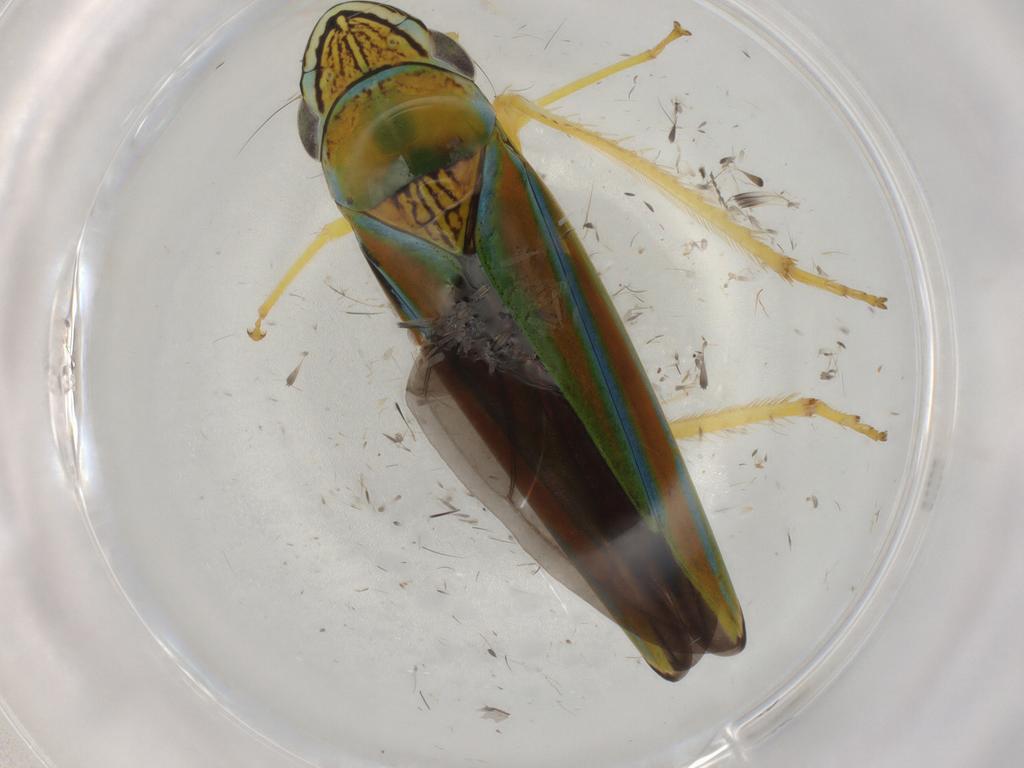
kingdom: Animalia
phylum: Arthropoda
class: Insecta
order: Hemiptera
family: Cicadellidae
